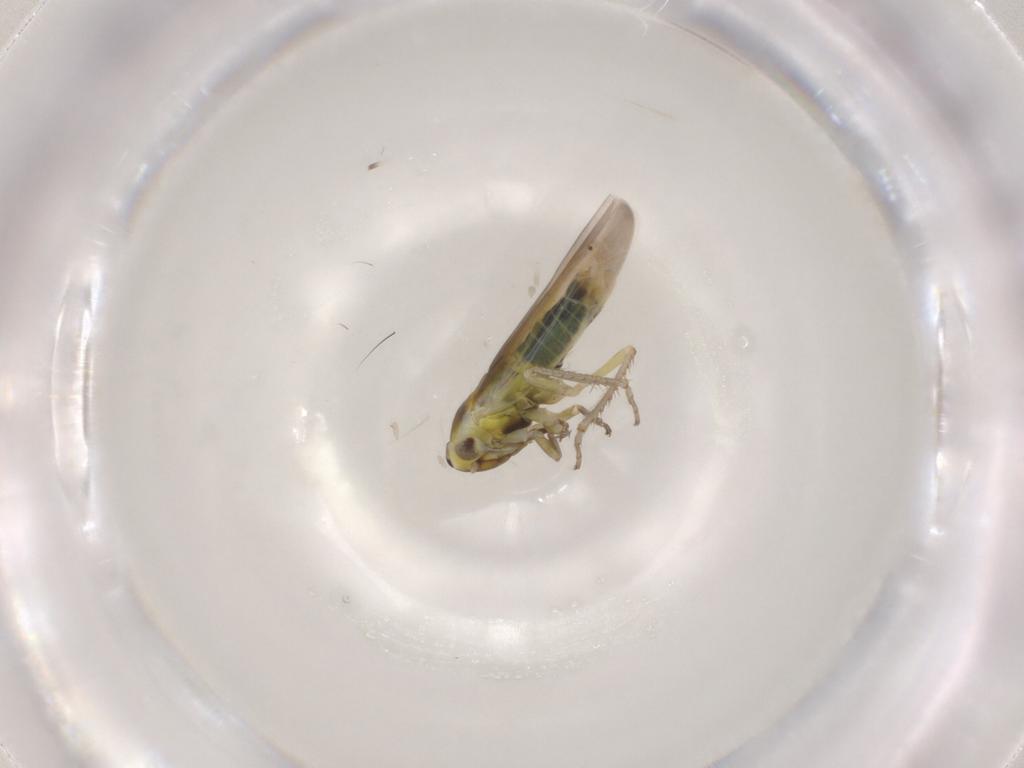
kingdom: Animalia
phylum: Arthropoda
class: Insecta
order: Hemiptera
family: Cicadellidae
